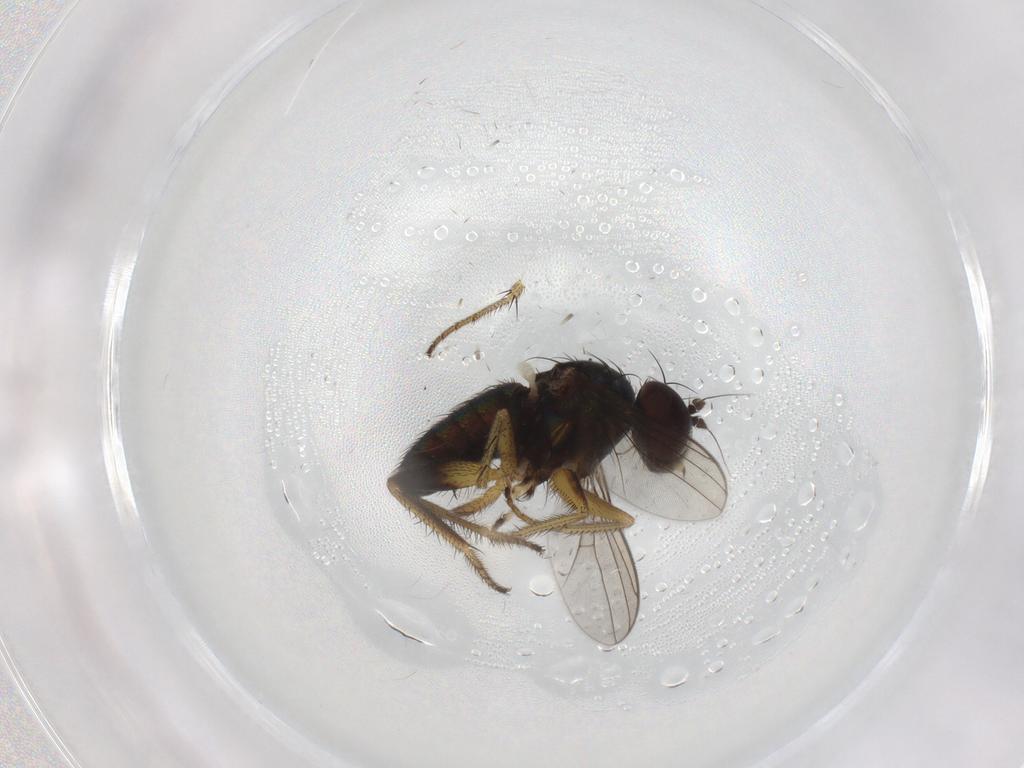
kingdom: Animalia
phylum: Arthropoda
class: Insecta
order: Diptera
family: Dolichopodidae
